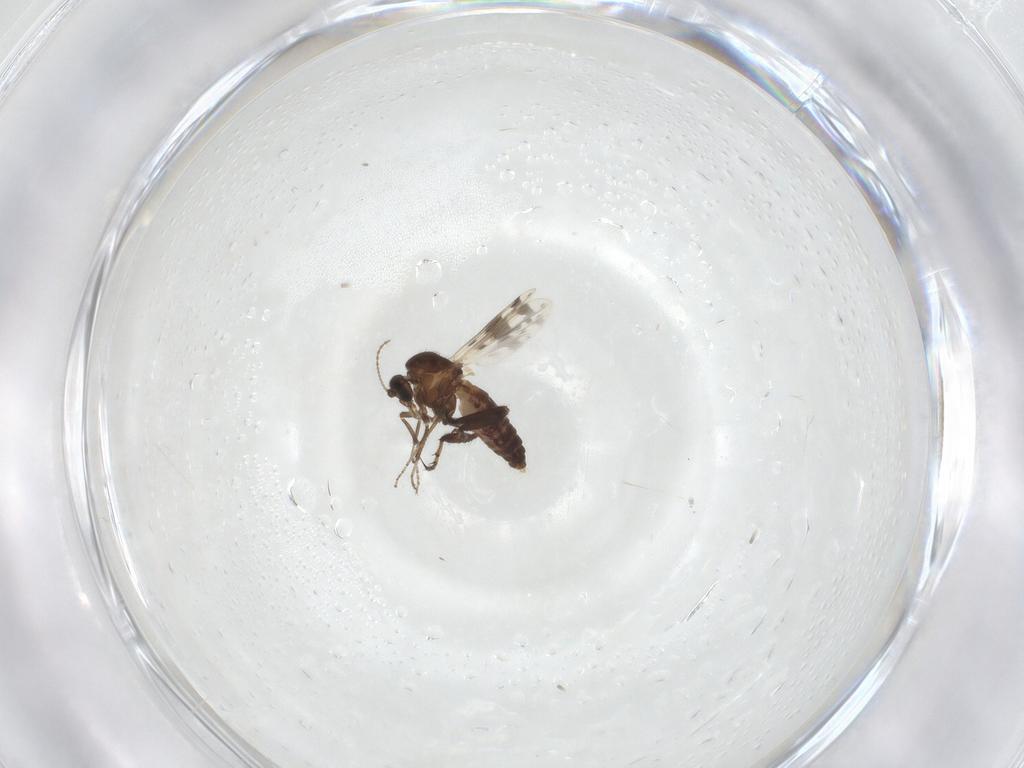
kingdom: Animalia
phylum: Arthropoda
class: Insecta
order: Diptera
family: Ceratopogonidae
